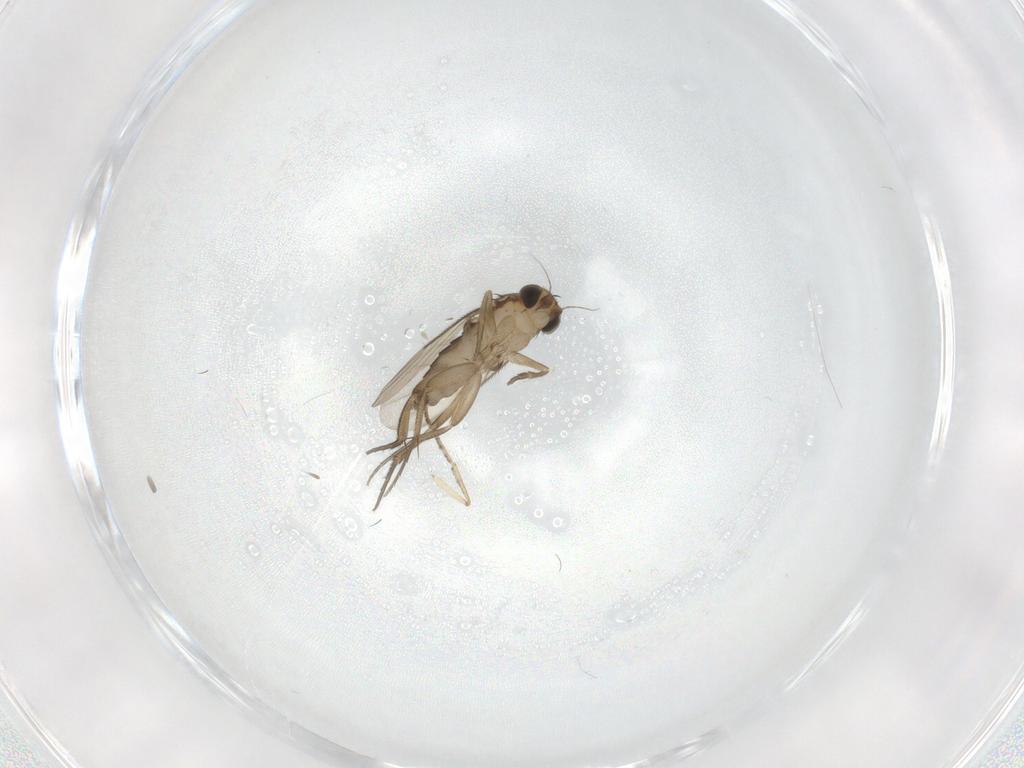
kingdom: Animalia
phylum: Arthropoda
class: Insecta
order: Diptera
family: Psychodidae
